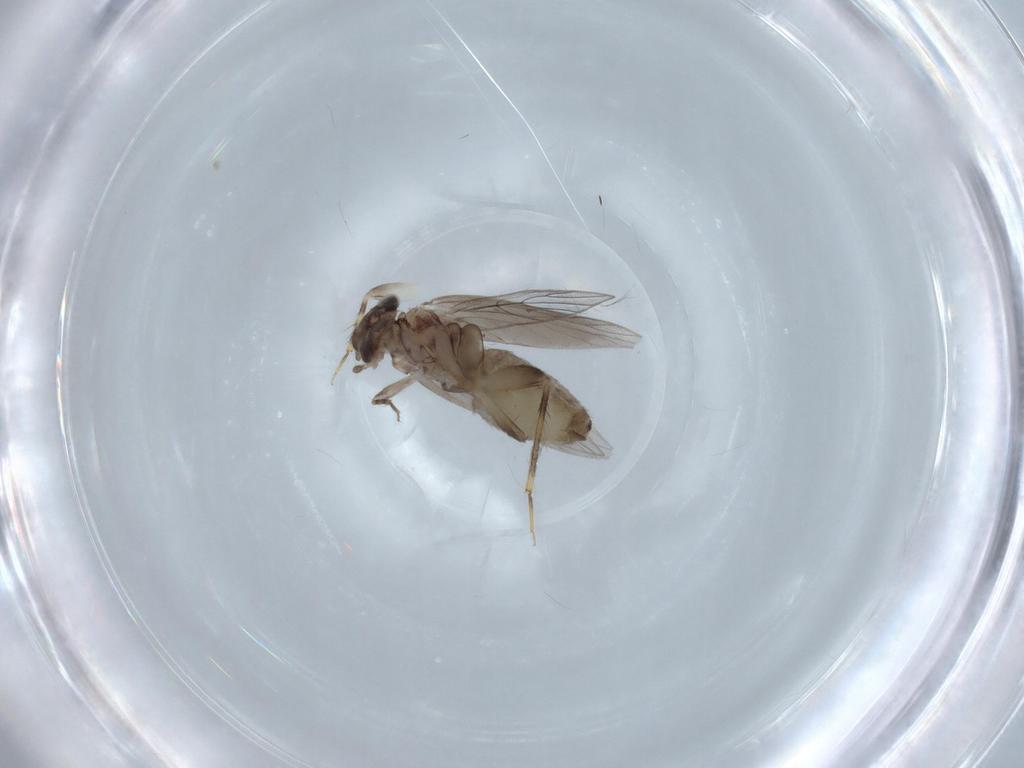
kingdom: Animalia
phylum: Arthropoda
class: Insecta
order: Psocodea
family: Lepidopsocidae
